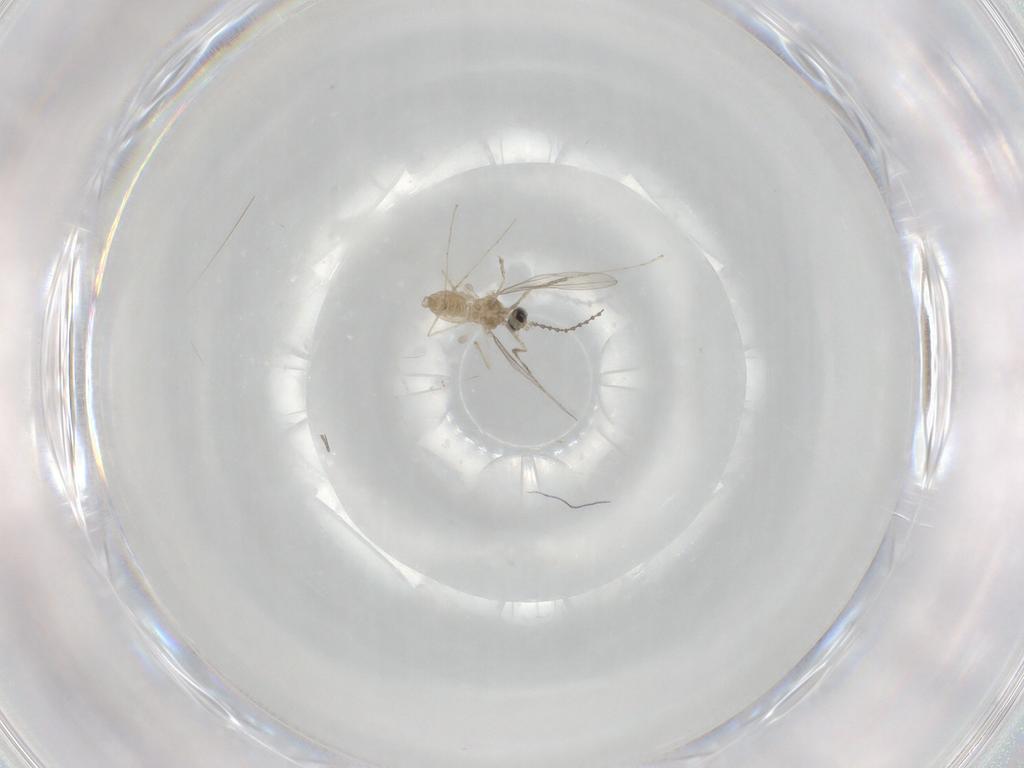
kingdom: Animalia
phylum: Arthropoda
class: Insecta
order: Diptera
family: Cecidomyiidae
